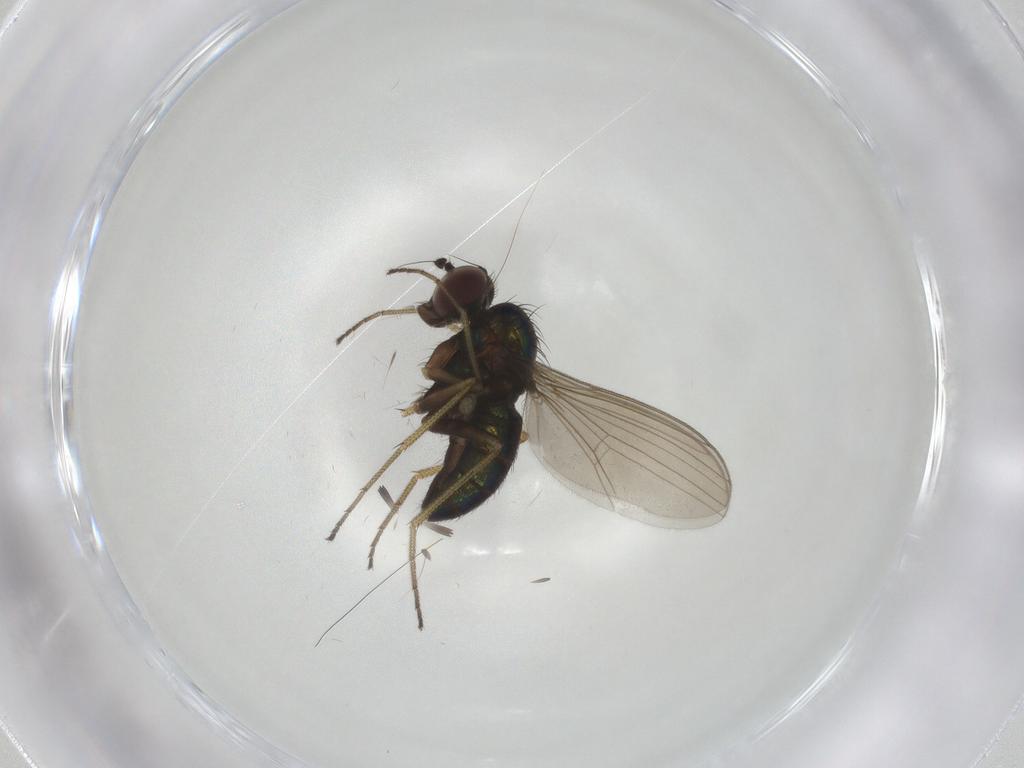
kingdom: Animalia
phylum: Arthropoda
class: Insecta
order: Diptera
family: Dolichopodidae
